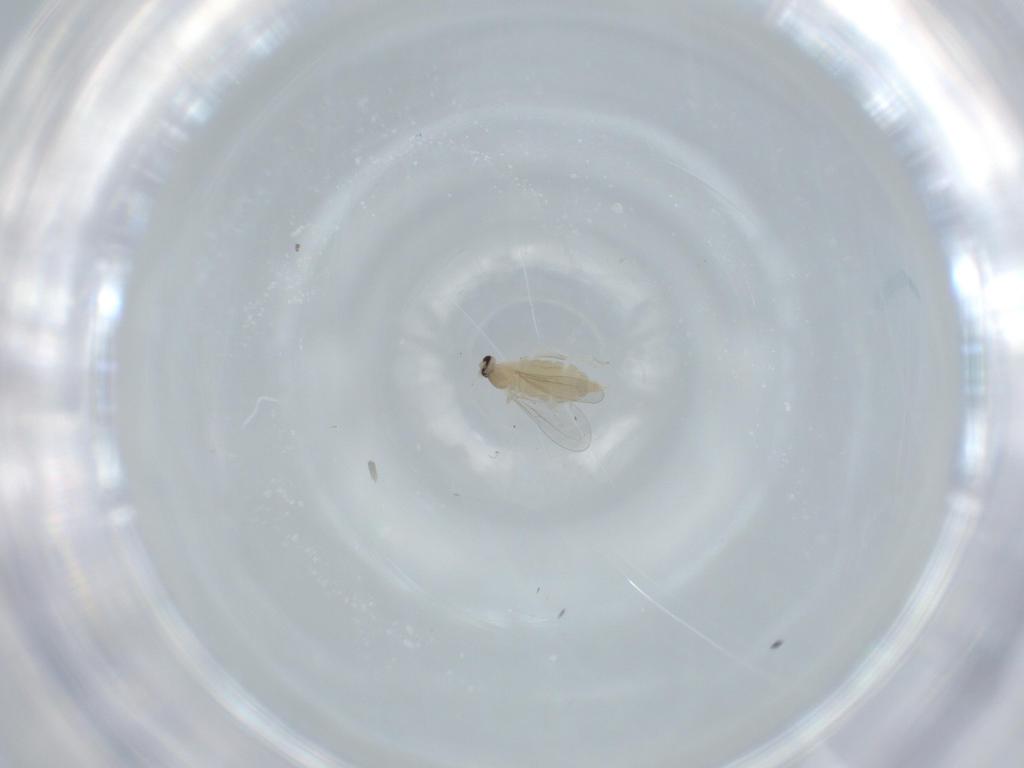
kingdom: Animalia
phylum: Arthropoda
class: Insecta
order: Diptera
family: Cecidomyiidae
